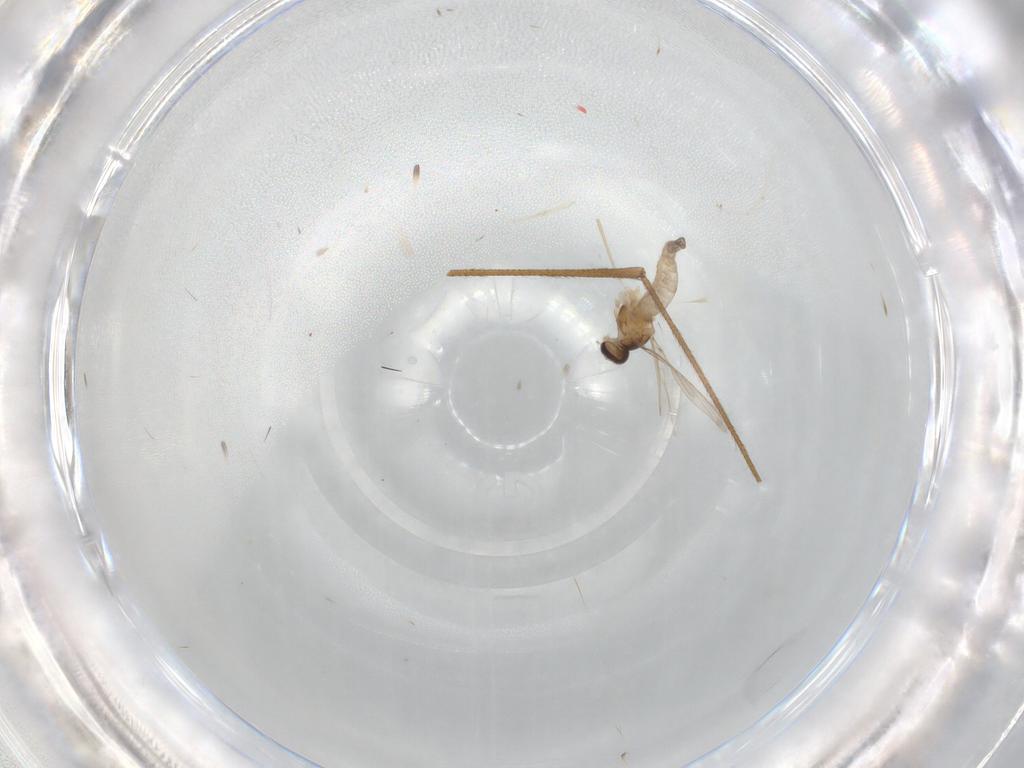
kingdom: Animalia
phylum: Arthropoda
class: Insecta
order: Diptera
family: Cecidomyiidae
